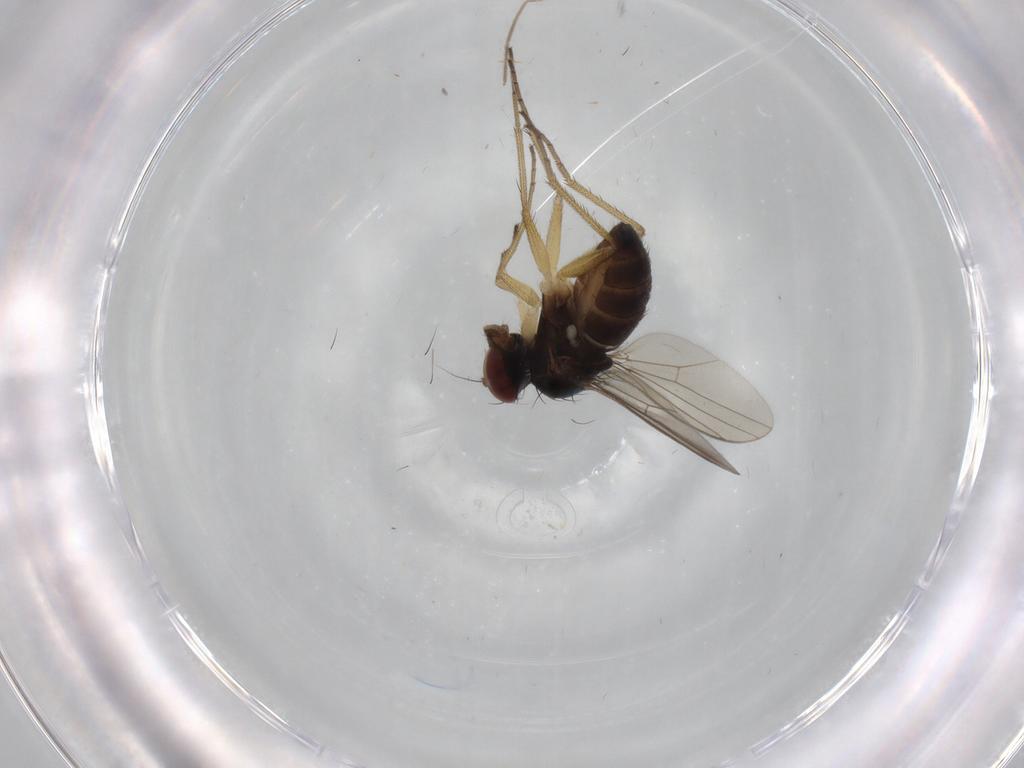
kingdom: Animalia
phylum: Arthropoda
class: Insecta
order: Diptera
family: Dolichopodidae
